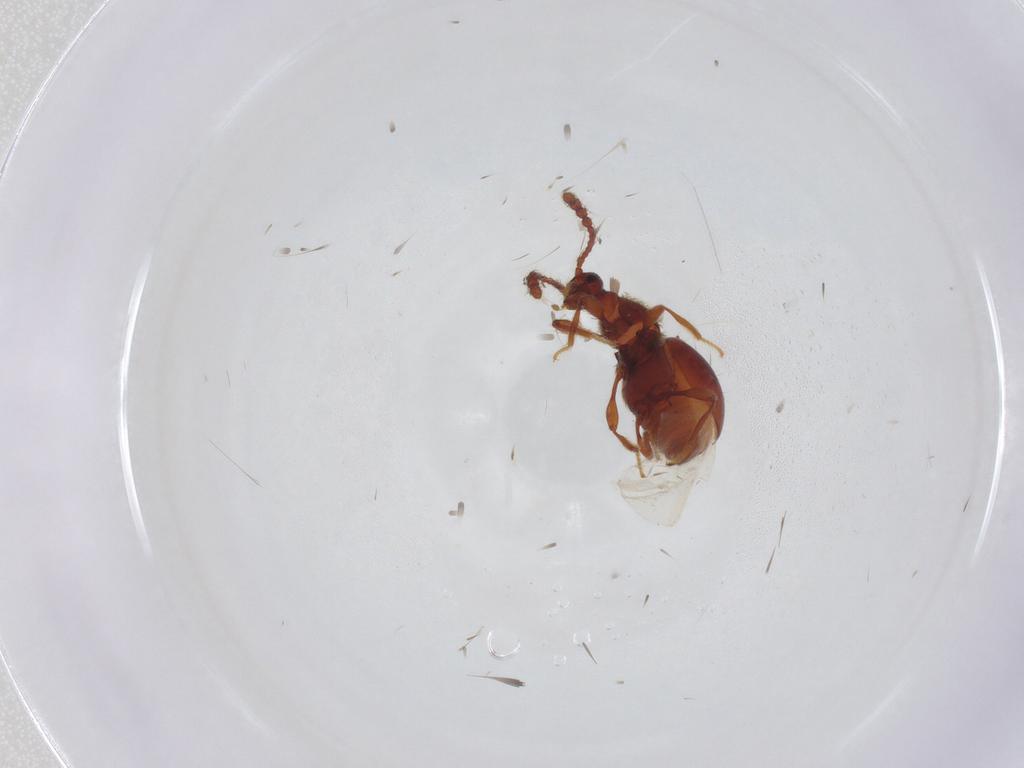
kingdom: Animalia
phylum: Arthropoda
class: Insecta
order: Coleoptera
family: Staphylinidae
